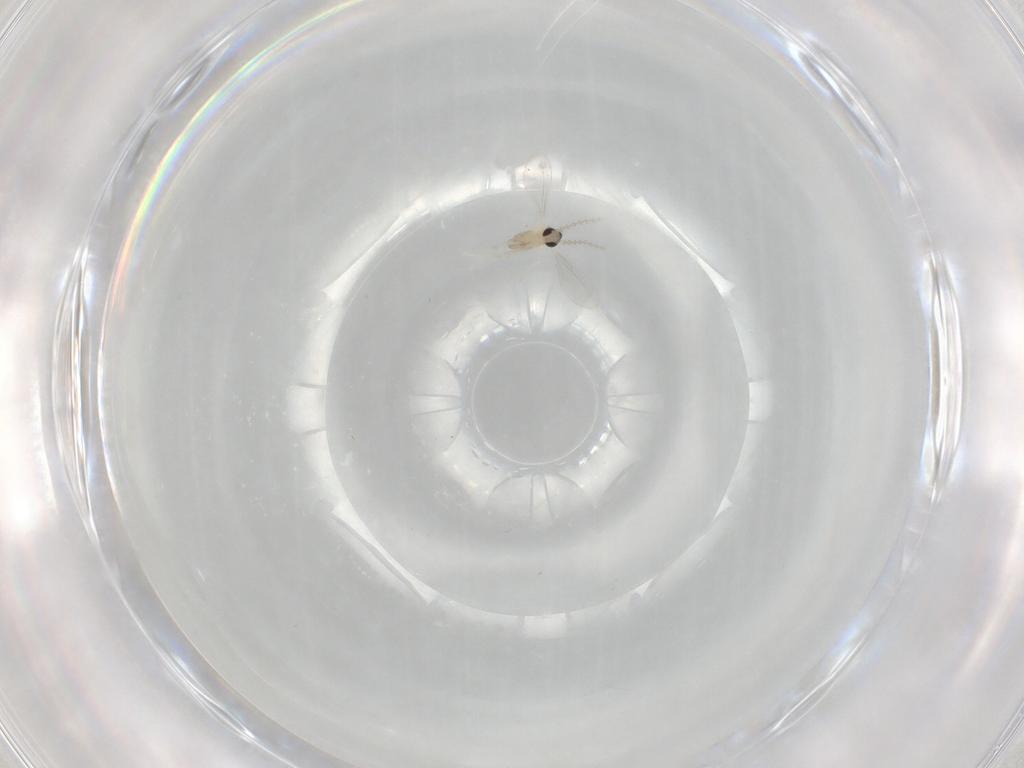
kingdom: Animalia
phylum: Arthropoda
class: Insecta
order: Diptera
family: Cecidomyiidae
